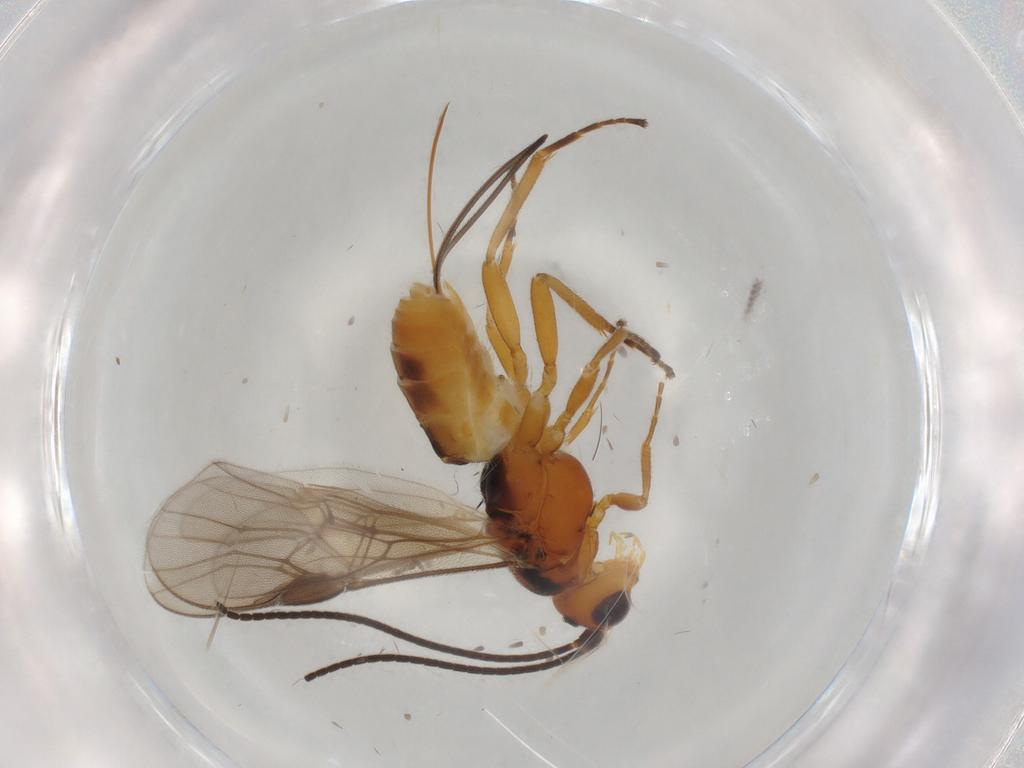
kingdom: Animalia
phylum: Arthropoda
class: Insecta
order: Hymenoptera
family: Braconidae
